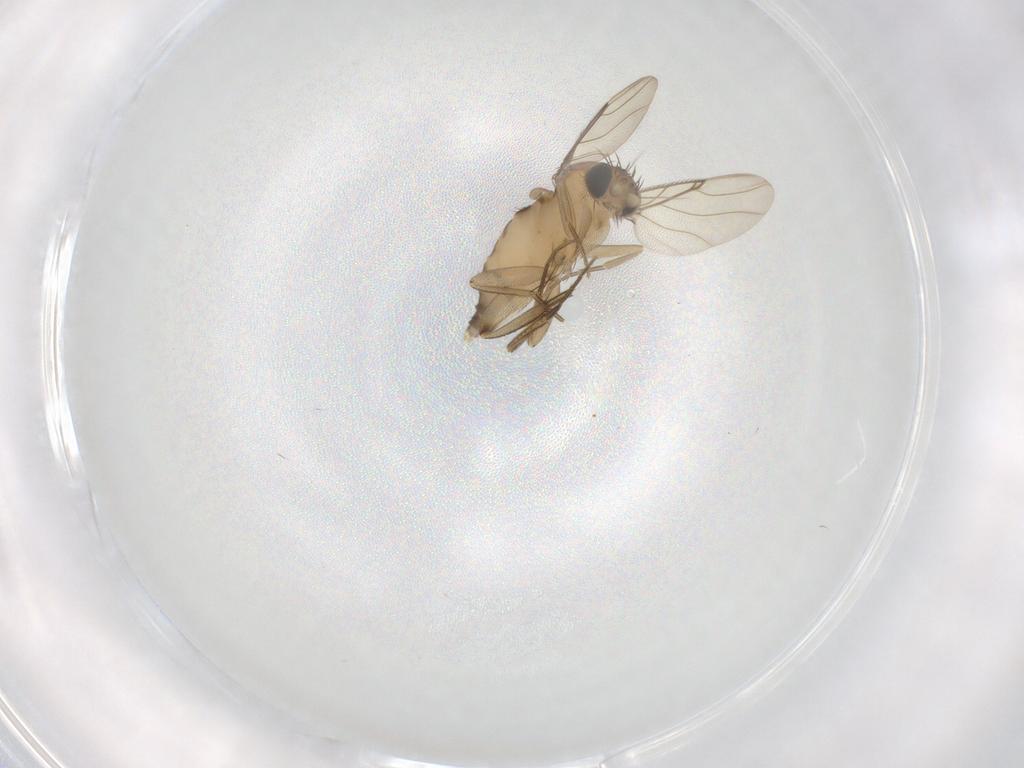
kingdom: Animalia
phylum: Arthropoda
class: Insecta
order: Diptera
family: Phoridae
